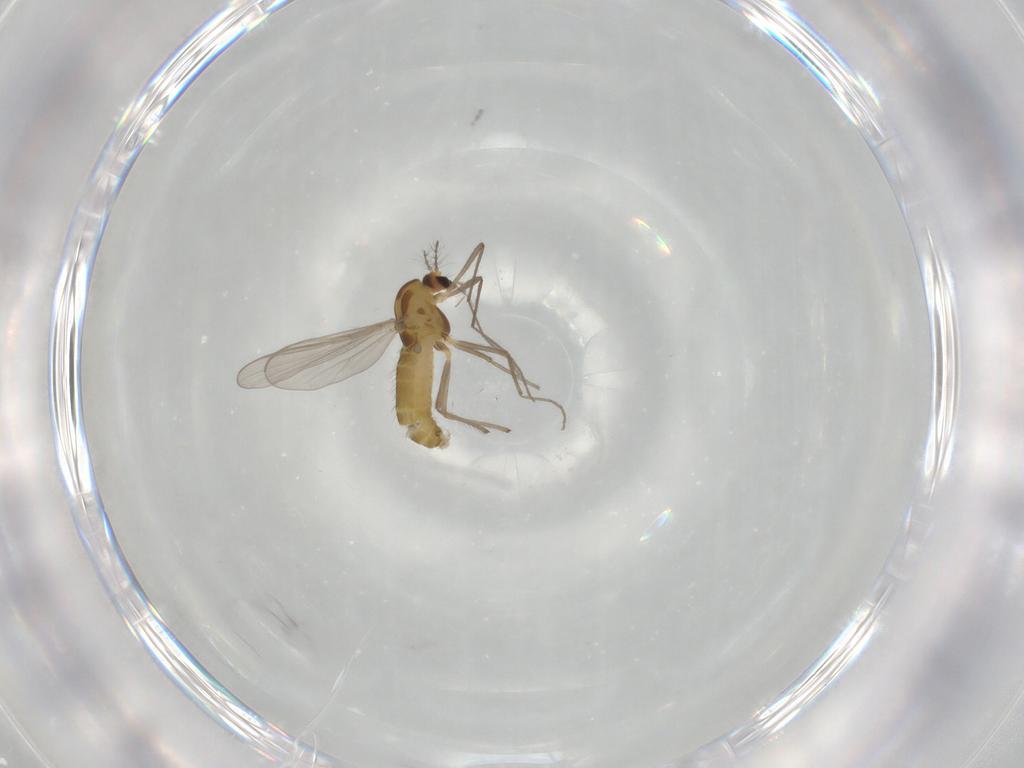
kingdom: Animalia
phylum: Arthropoda
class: Insecta
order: Diptera
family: Chironomidae
